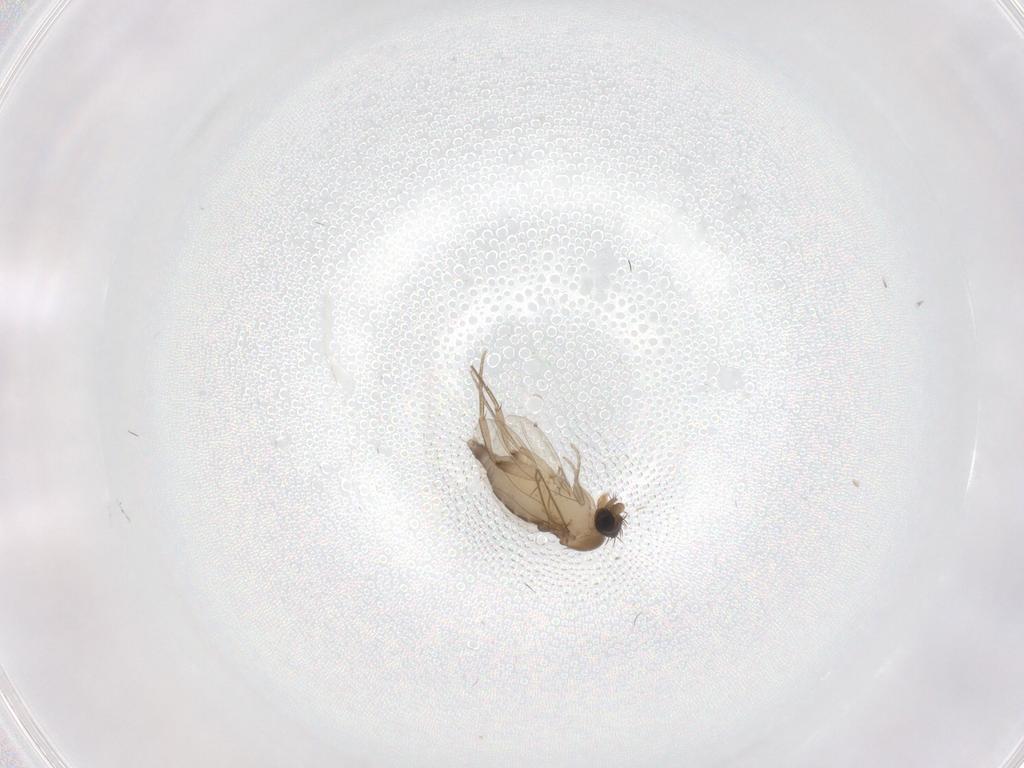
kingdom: Animalia
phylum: Arthropoda
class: Insecta
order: Diptera
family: Phoridae
